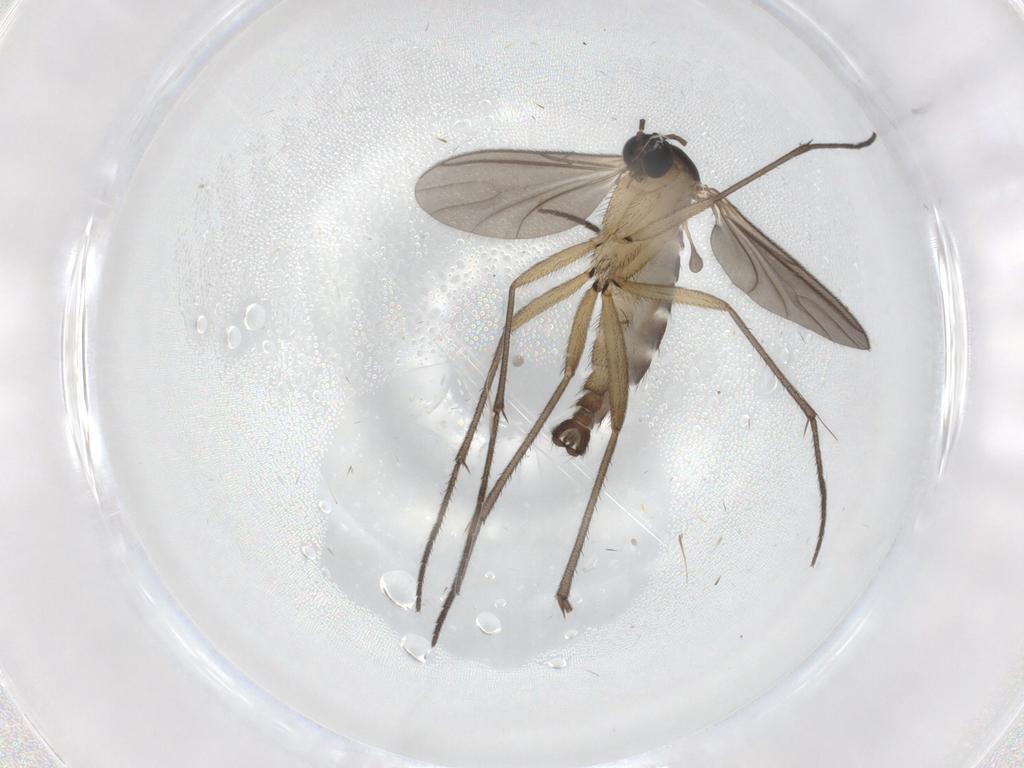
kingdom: Animalia
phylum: Arthropoda
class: Insecta
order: Diptera
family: Sciaridae
